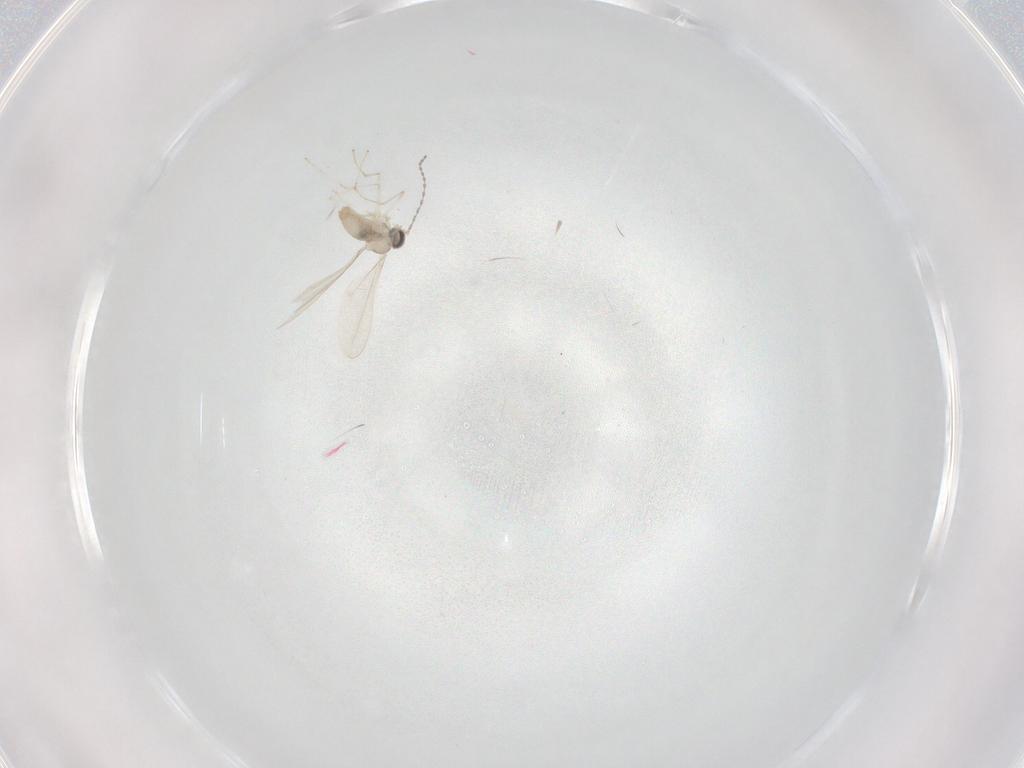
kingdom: Animalia
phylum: Arthropoda
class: Insecta
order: Diptera
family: Cecidomyiidae
